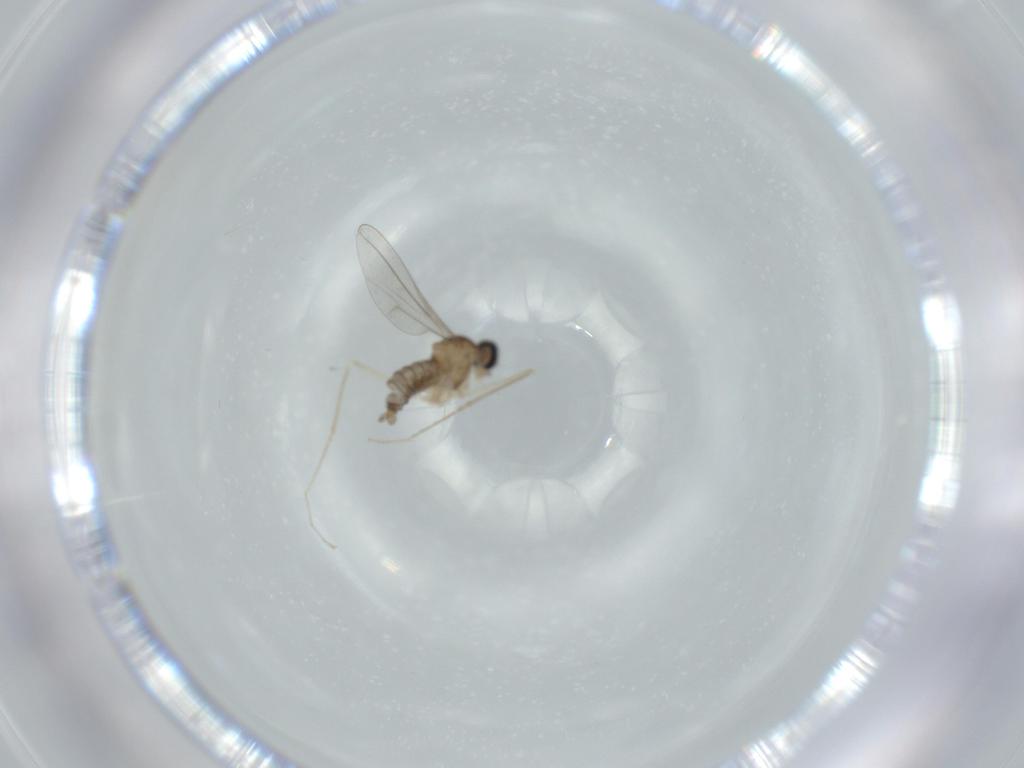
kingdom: Animalia
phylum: Arthropoda
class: Insecta
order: Diptera
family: Cecidomyiidae
